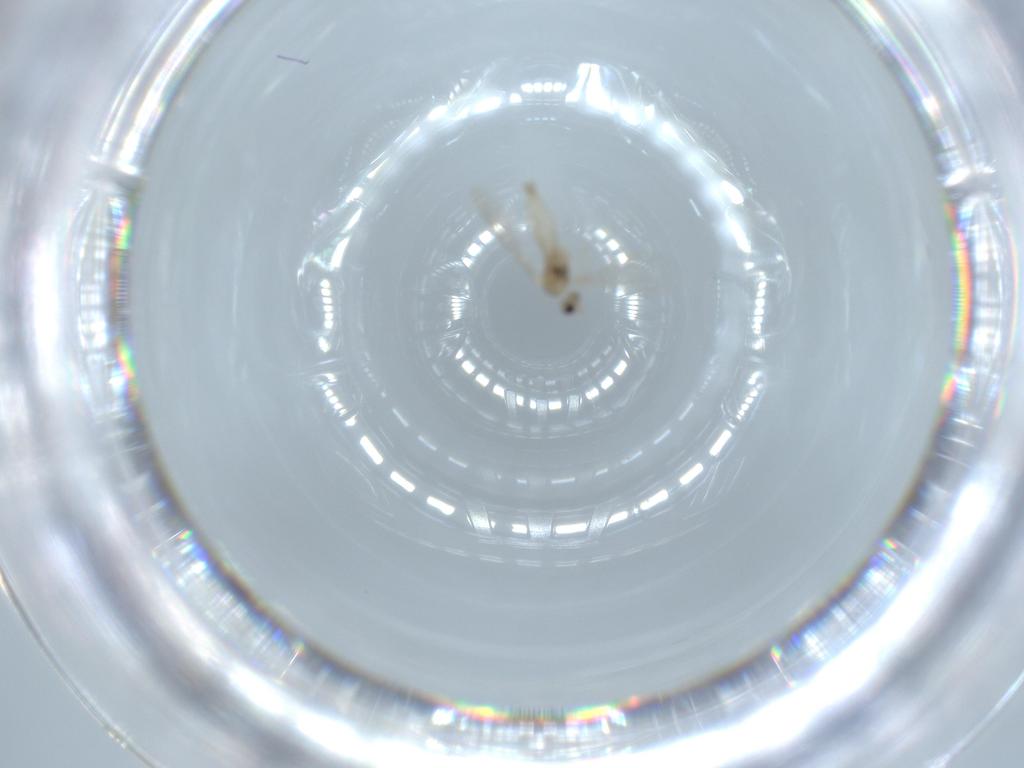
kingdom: Animalia
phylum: Arthropoda
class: Insecta
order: Diptera
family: Cecidomyiidae
